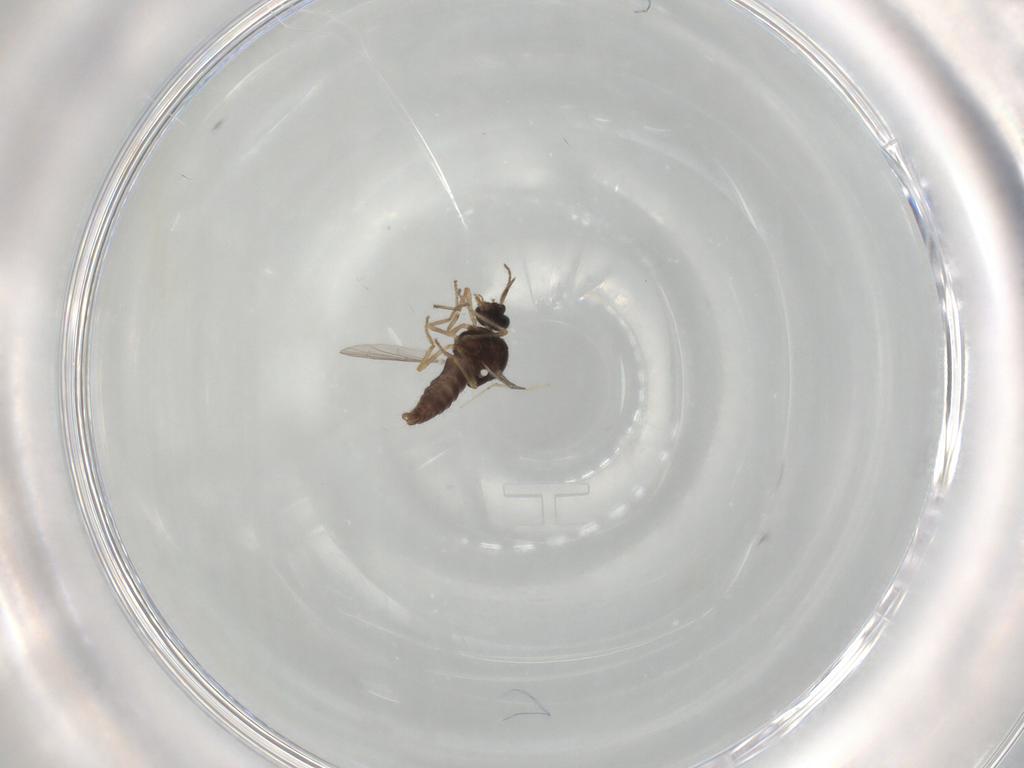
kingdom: Animalia
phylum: Arthropoda
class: Insecta
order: Diptera
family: Ceratopogonidae
